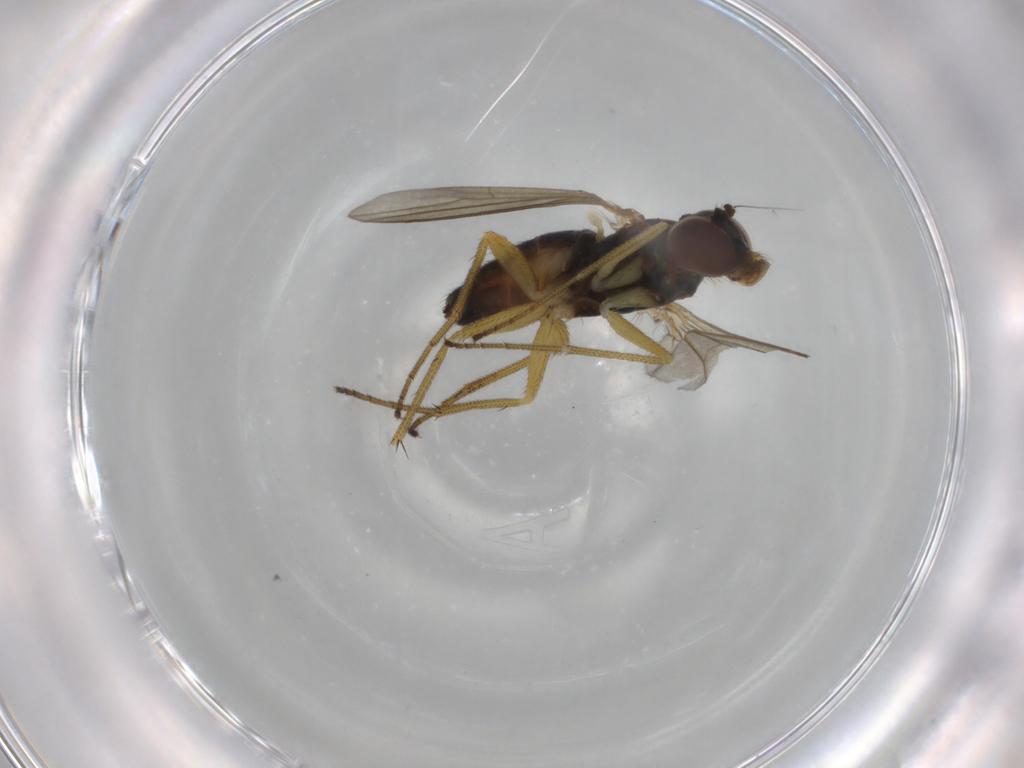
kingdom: Animalia
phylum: Arthropoda
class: Insecta
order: Diptera
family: Dolichopodidae
